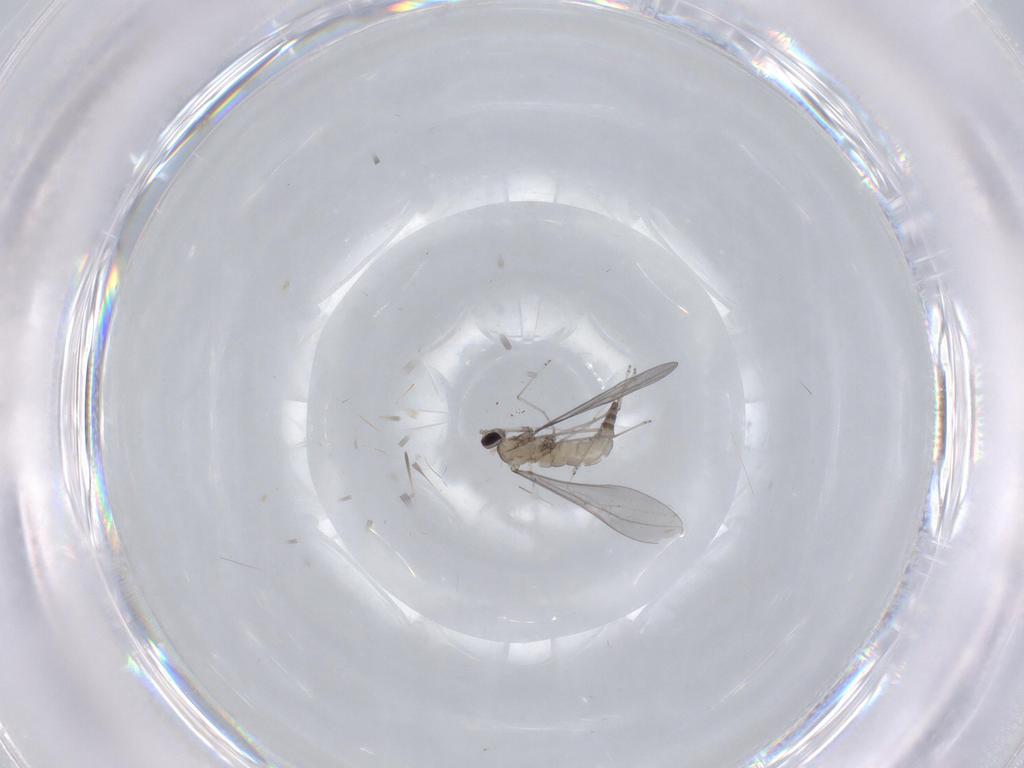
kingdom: Animalia
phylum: Arthropoda
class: Insecta
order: Diptera
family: Cecidomyiidae
